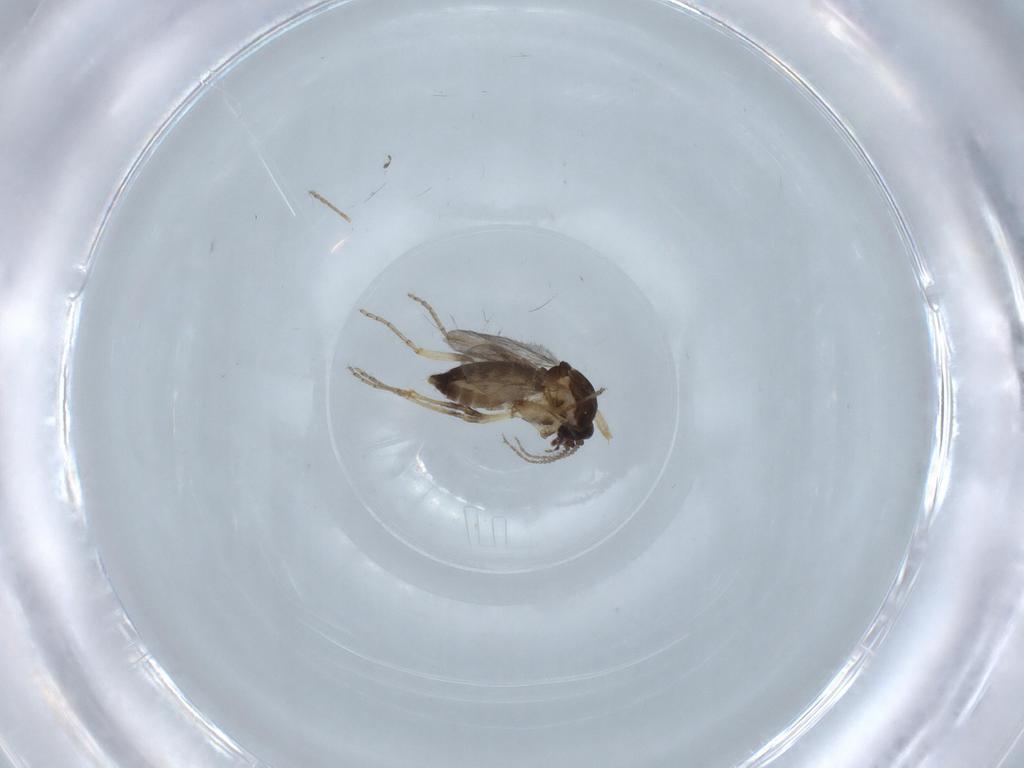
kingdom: Animalia
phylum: Arthropoda
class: Insecta
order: Diptera
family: Ceratopogonidae
